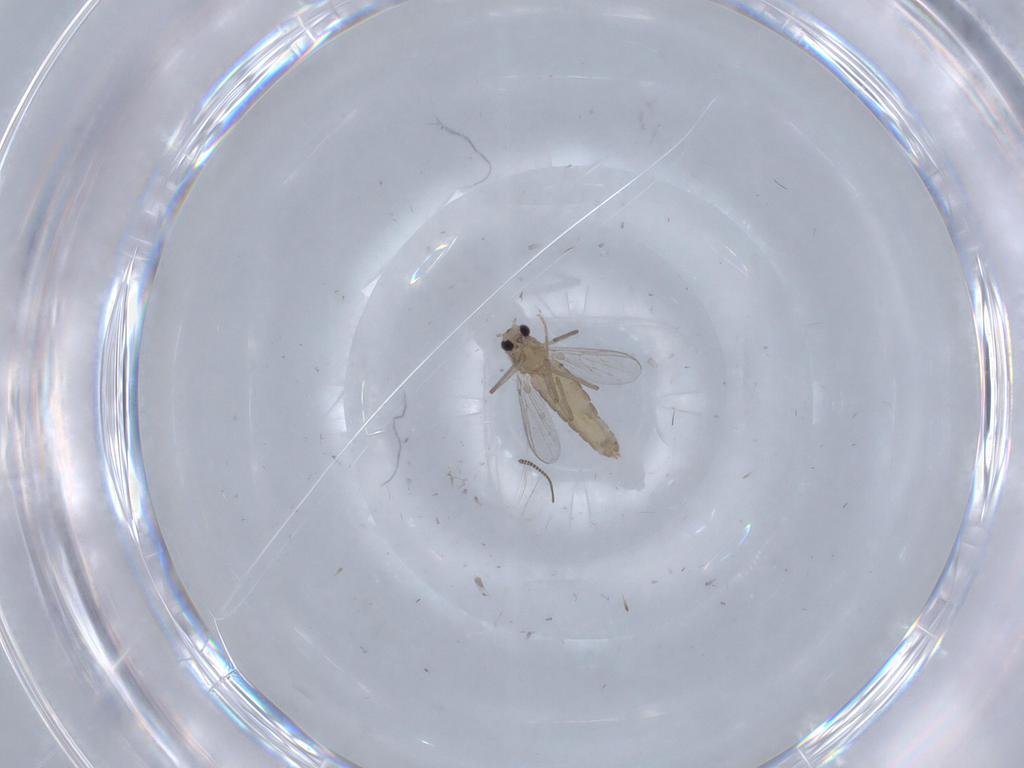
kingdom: Animalia
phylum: Arthropoda
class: Insecta
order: Diptera
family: Chironomidae
